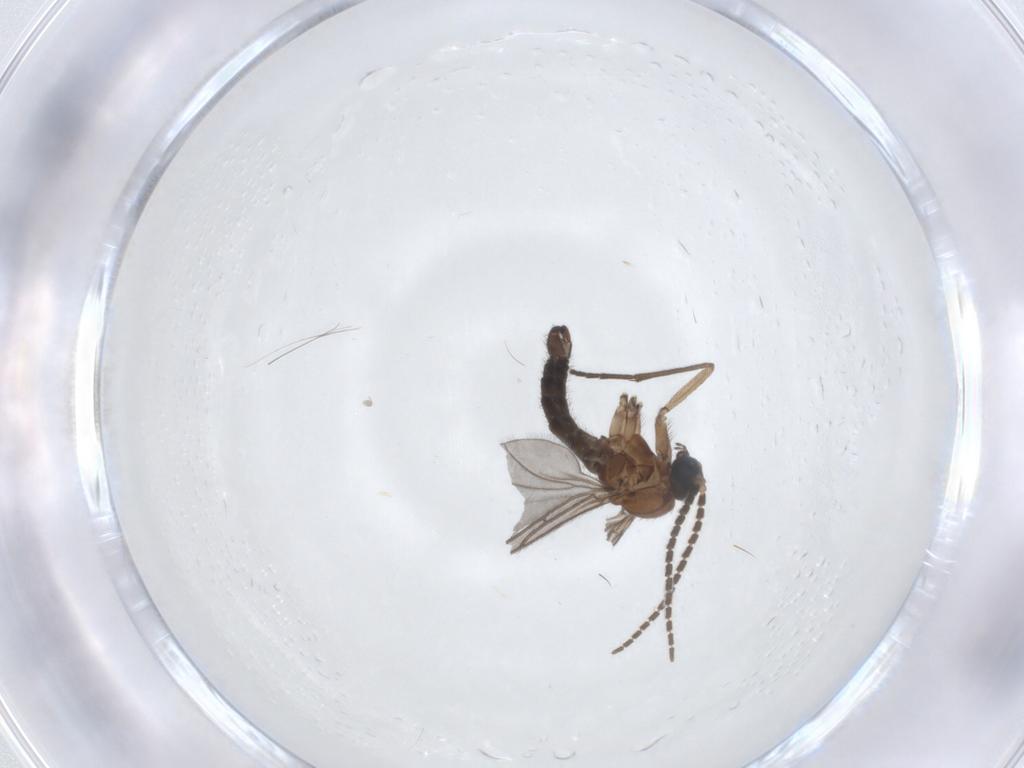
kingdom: Animalia
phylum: Arthropoda
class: Insecta
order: Diptera
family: Sciaridae
